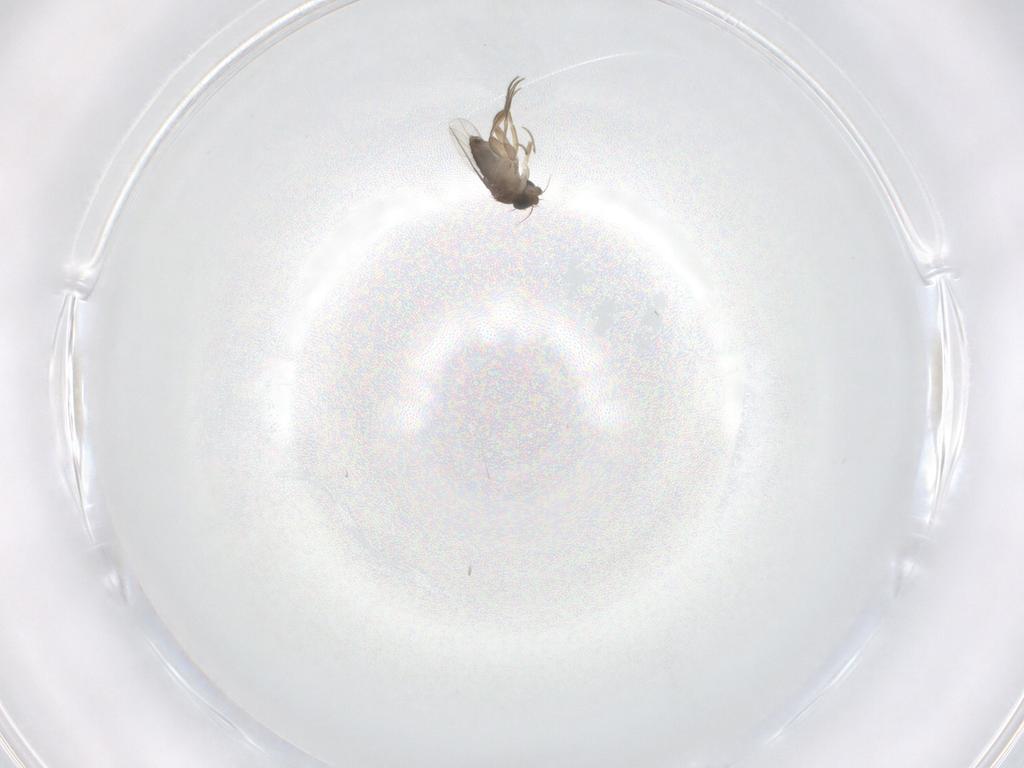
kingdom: Animalia
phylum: Arthropoda
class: Insecta
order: Diptera
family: Phoridae
